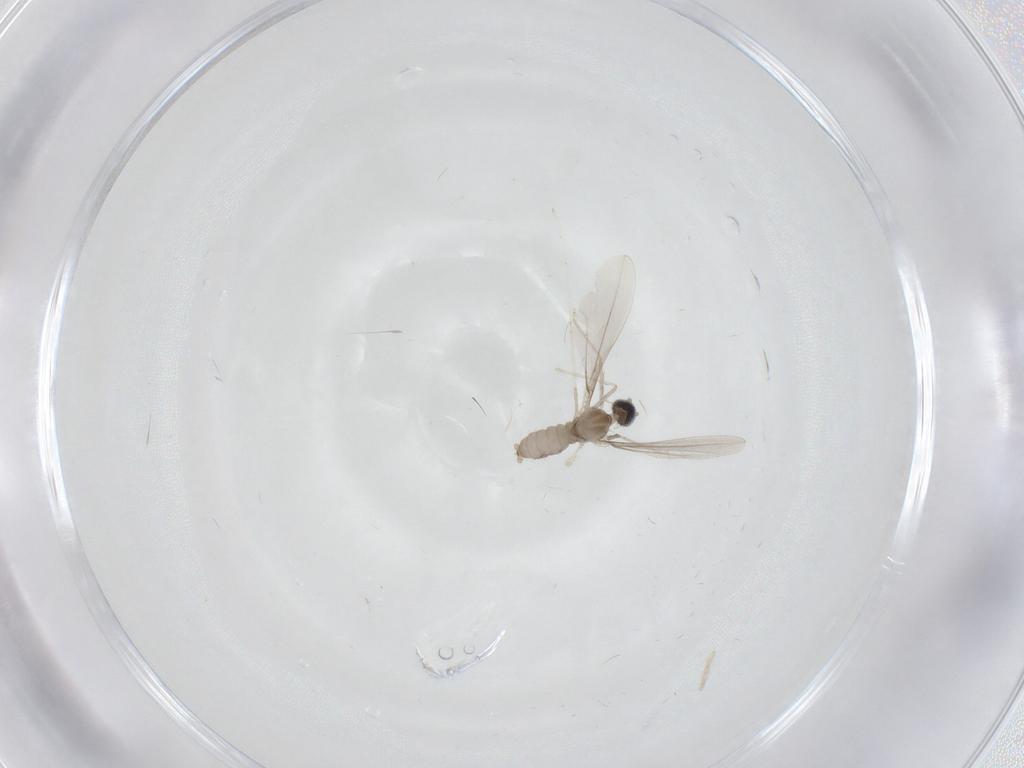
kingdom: Animalia
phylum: Arthropoda
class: Insecta
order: Diptera
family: Cecidomyiidae
